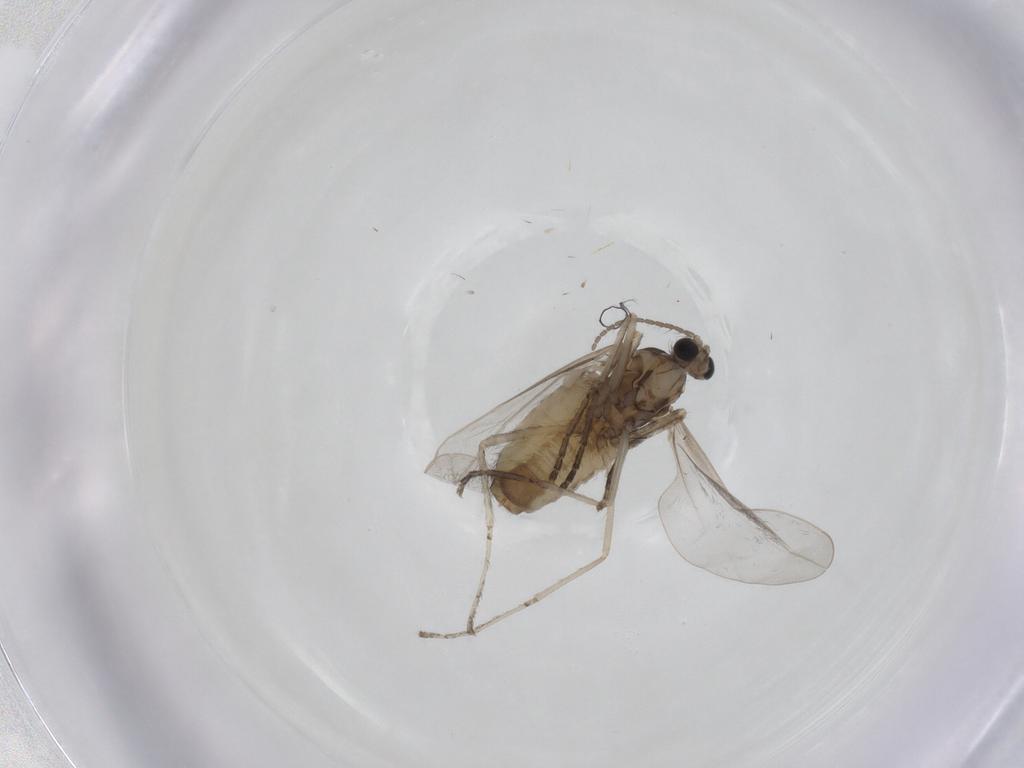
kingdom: Animalia
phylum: Arthropoda
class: Insecta
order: Diptera
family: Cecidomyiidae
